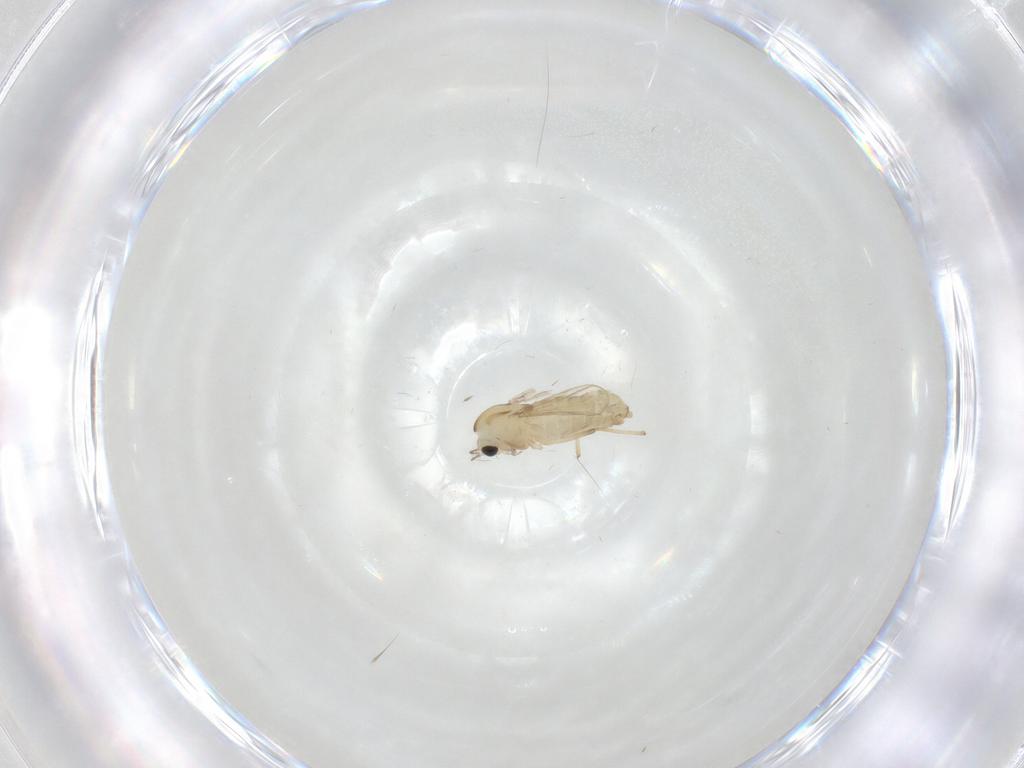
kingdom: Animalia
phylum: Arthropoda
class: Insecta
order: Diptera
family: Chironomidae
